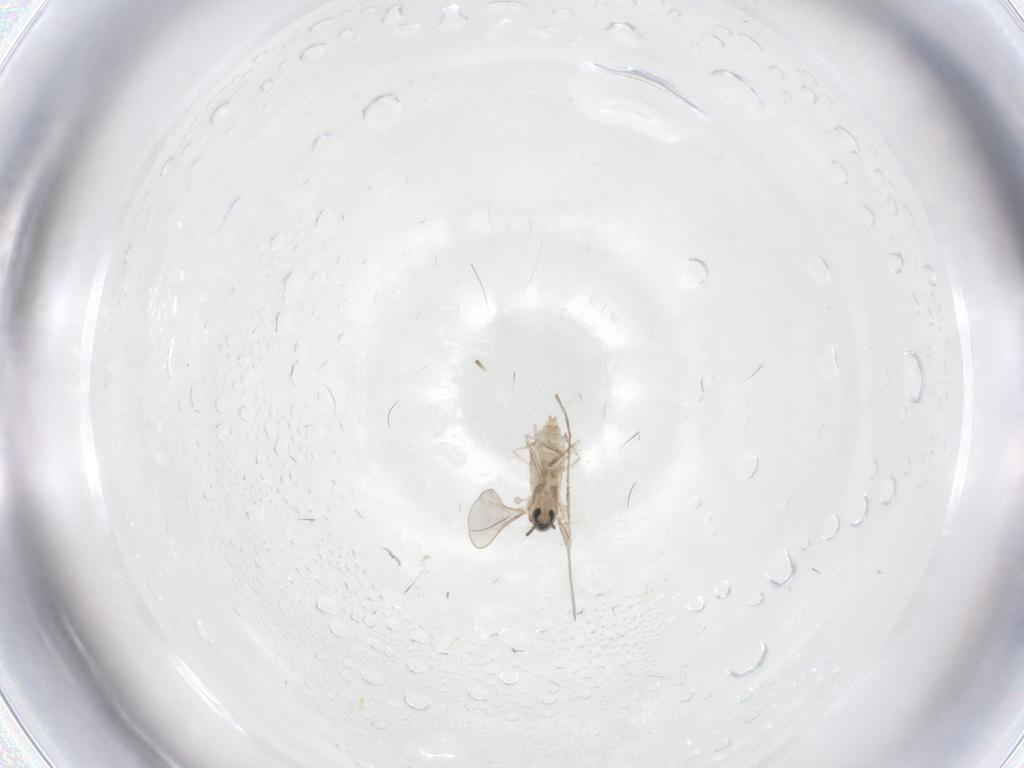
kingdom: Animalia
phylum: Arthropoda
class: Insecta
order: Diptera
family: Cecidomyiidae
